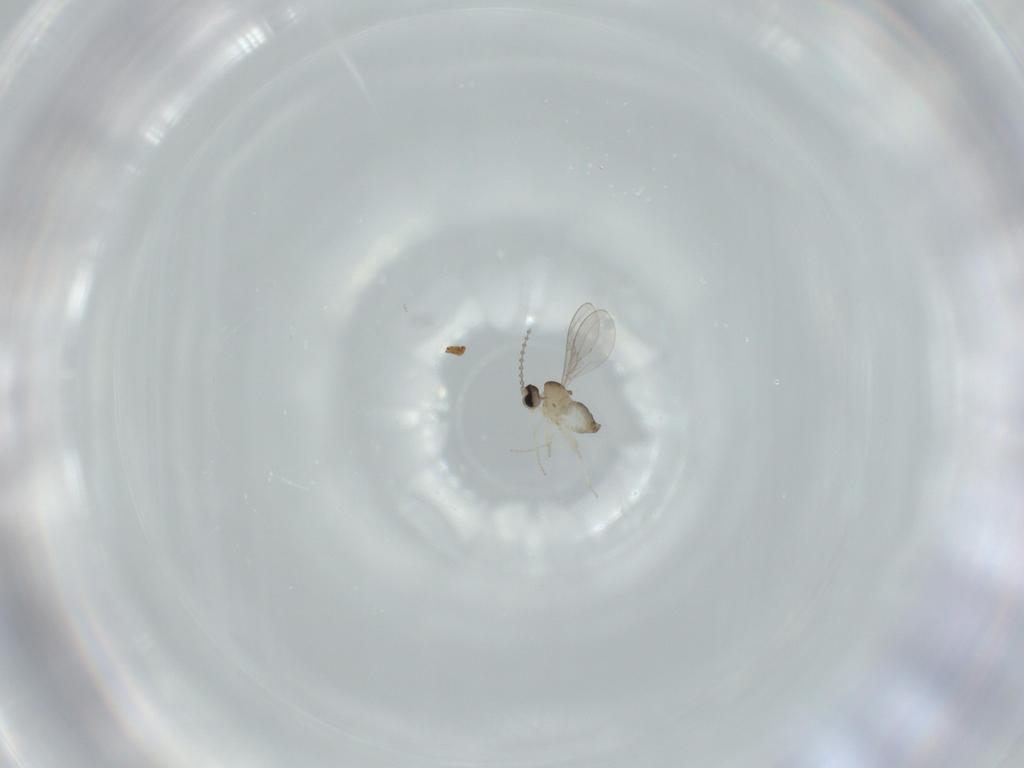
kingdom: Animalia
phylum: Arthropoda
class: Insecta
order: Diptera
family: Cecidomyiidae
